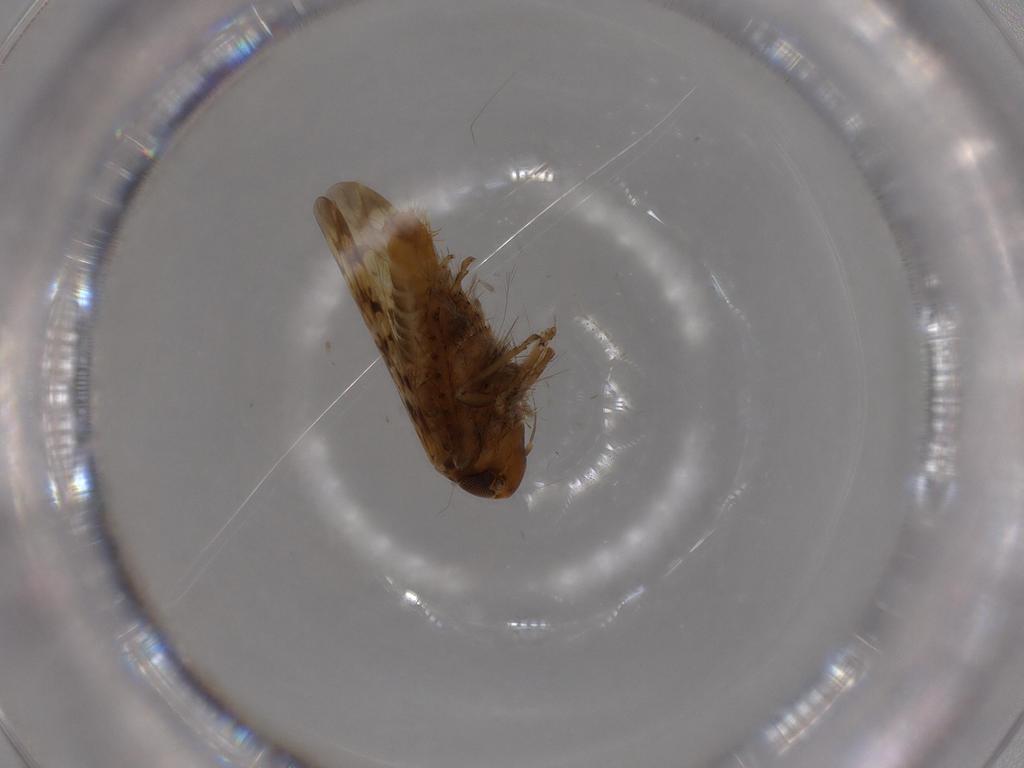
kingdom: Animalia
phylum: Arthropoda
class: Insecta
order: Hemiptera
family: Cicadellidae
